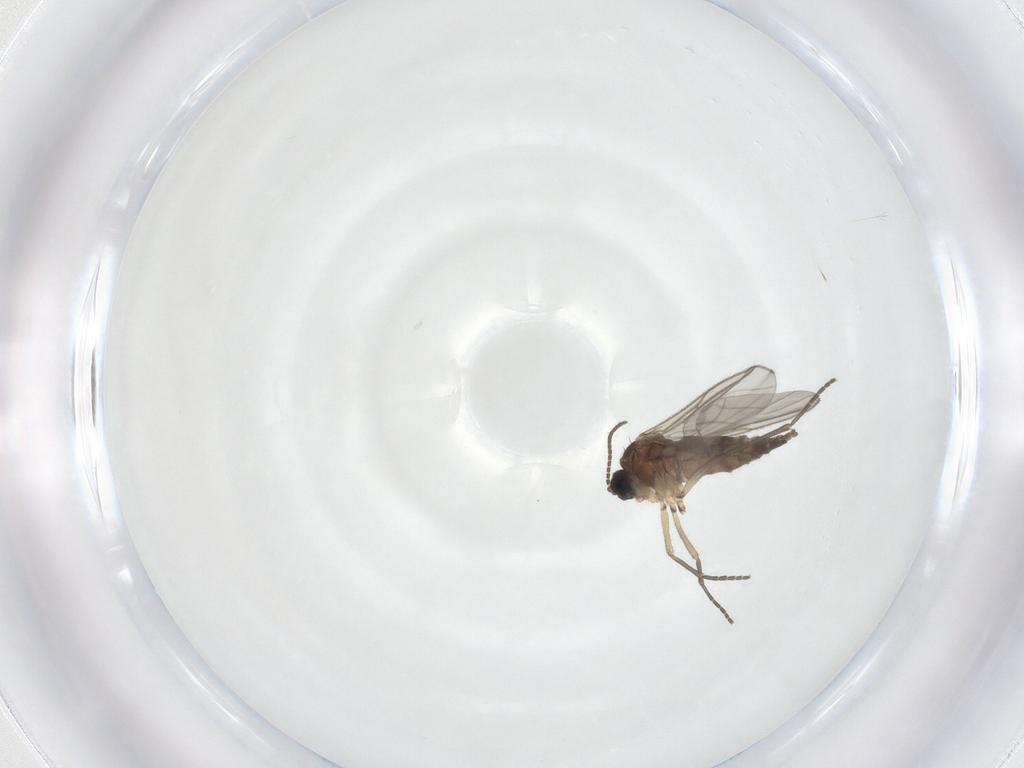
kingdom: Animalia
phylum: Arthropoda
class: Insecta
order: Diptera
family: Sciaridae
